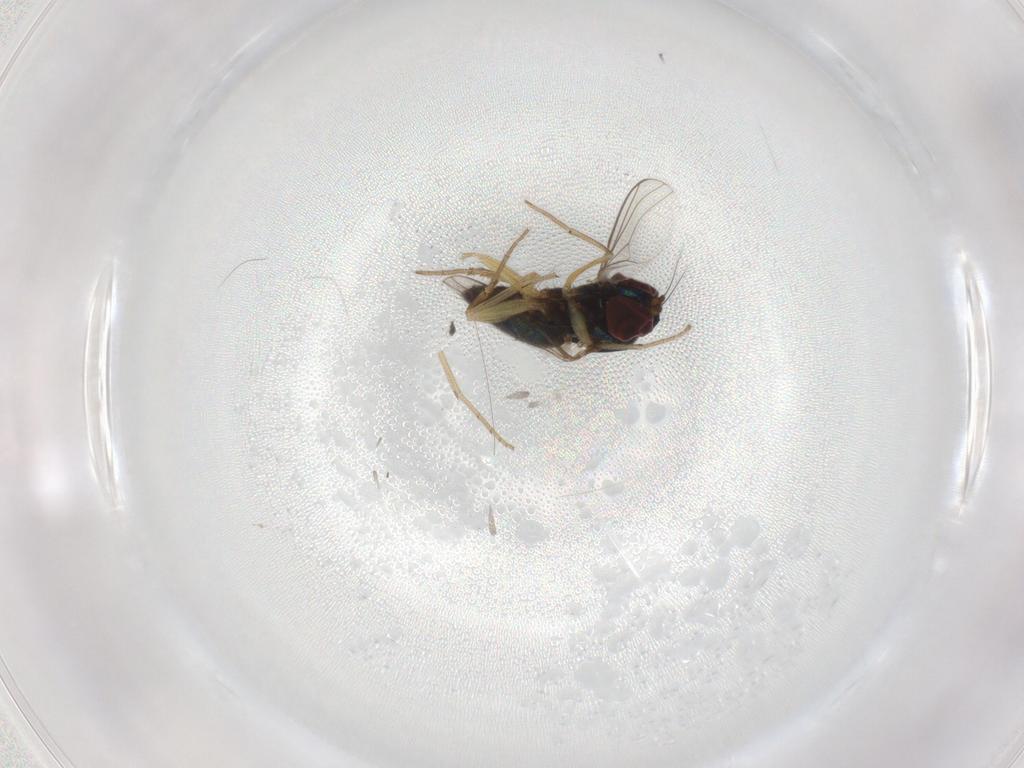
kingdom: Animalia
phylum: Arthropoda
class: Insecta
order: Diptera
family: Dolichopodidae
